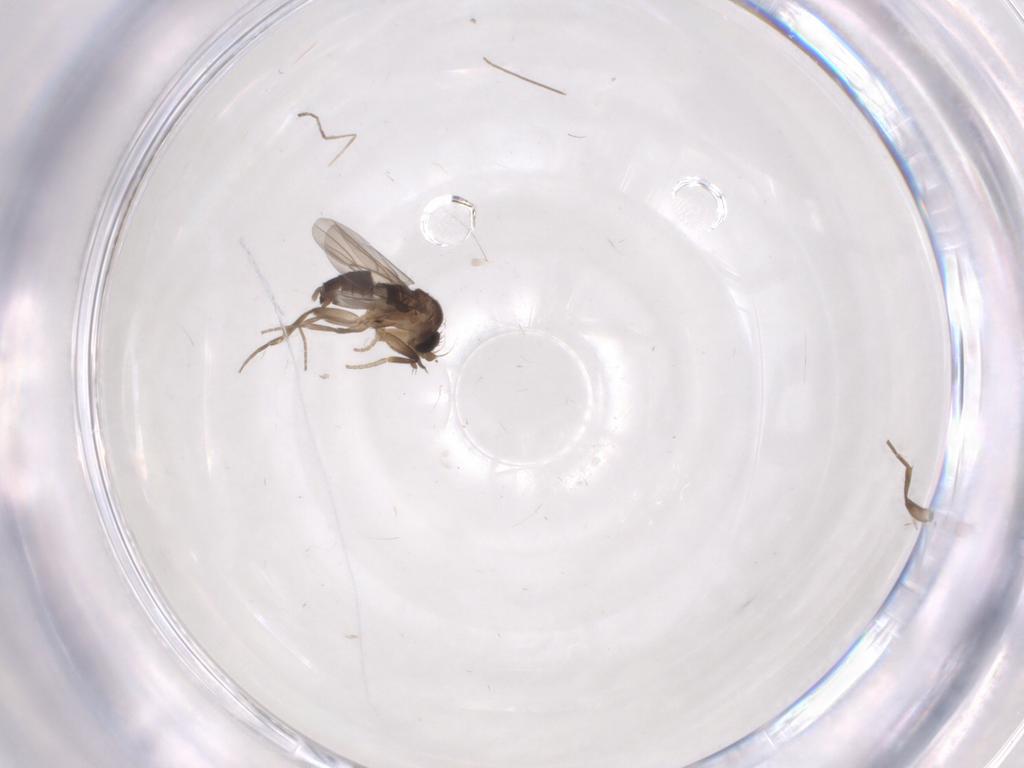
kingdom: Animalia
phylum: Arthropoda
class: Insecta
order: Diptera
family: Phoridae
